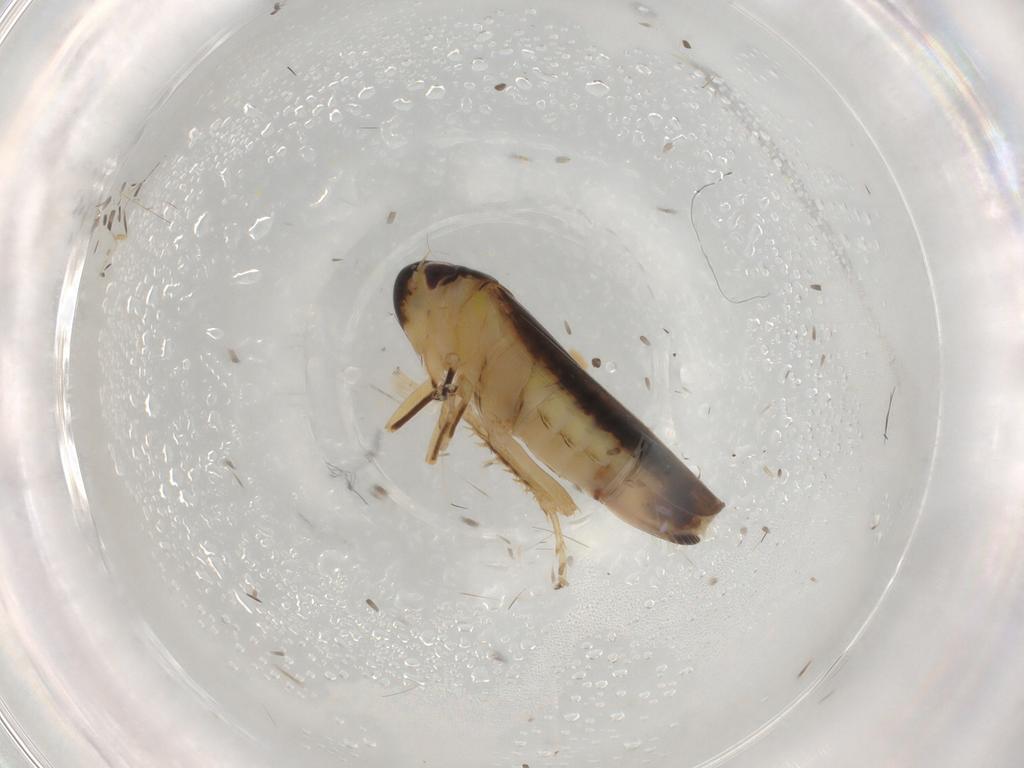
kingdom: Animalia
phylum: Arthropoda
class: Insecta
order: Hemiptera
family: Cicadellidae
